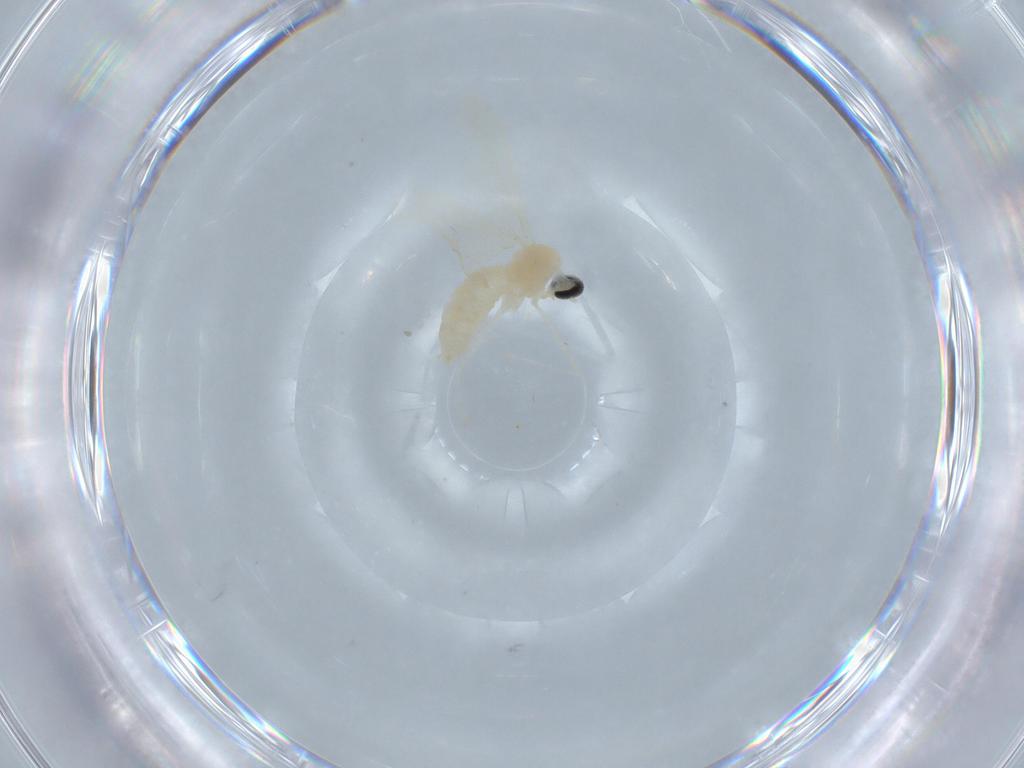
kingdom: Animalia
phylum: Arthropoda
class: Insecta
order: Diptera
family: Cecidomyiidae
